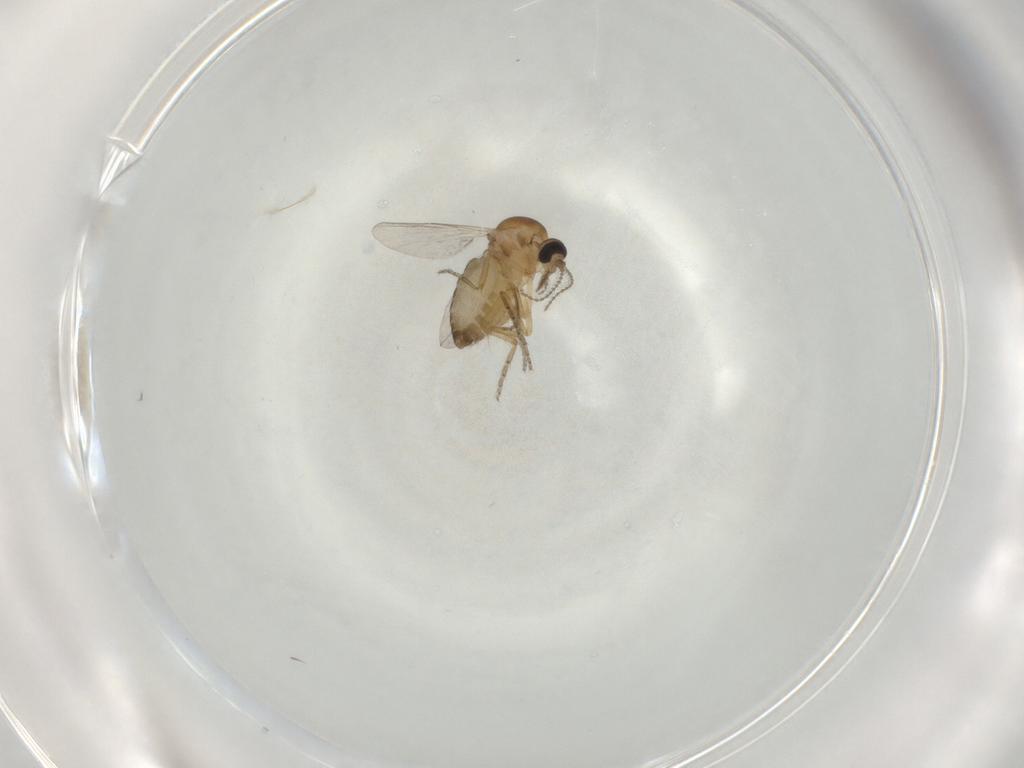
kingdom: Animalia
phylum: Arthropoda
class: Insecta
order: Diptera
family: Ceratopogonidae
